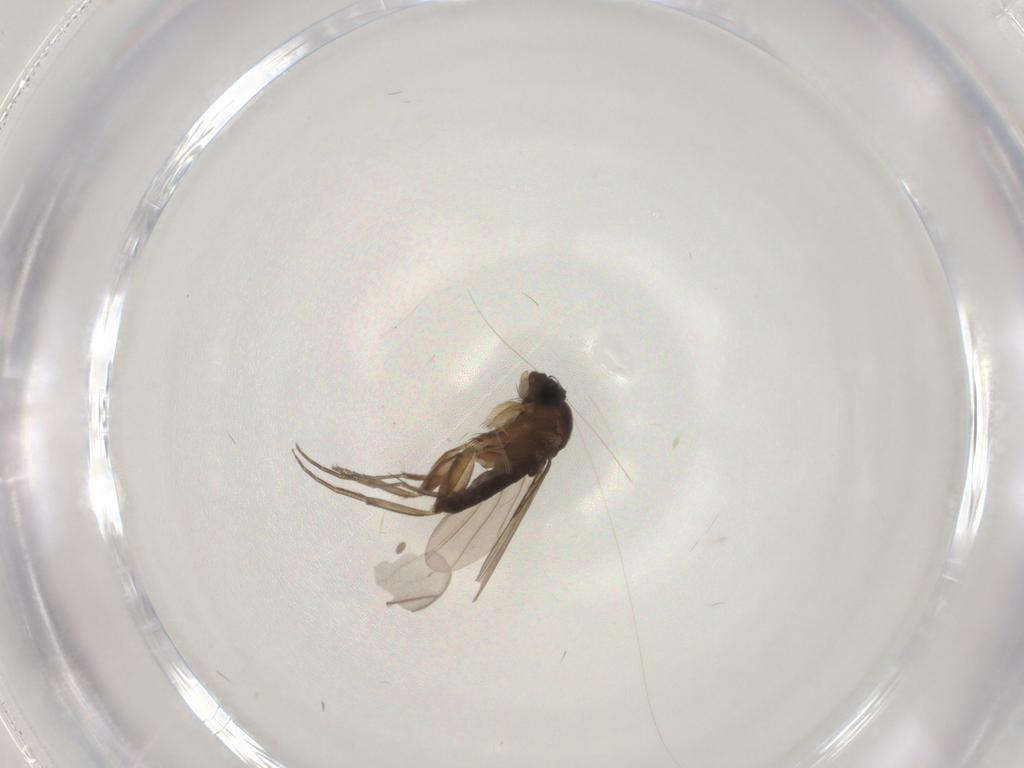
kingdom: Animalia
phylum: Arthropoda
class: Insecta
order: Diptera
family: Phoridae
